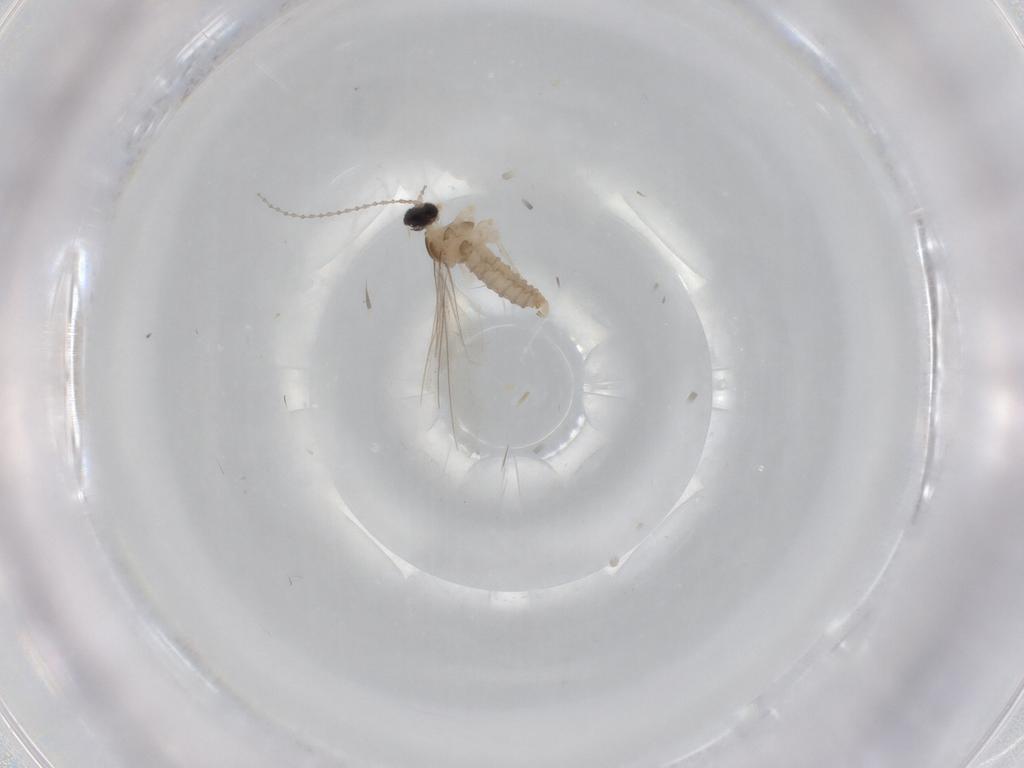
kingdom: Animalia
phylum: Arthropoda
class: Insecta
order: Diptera
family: Cecidomyiidae
